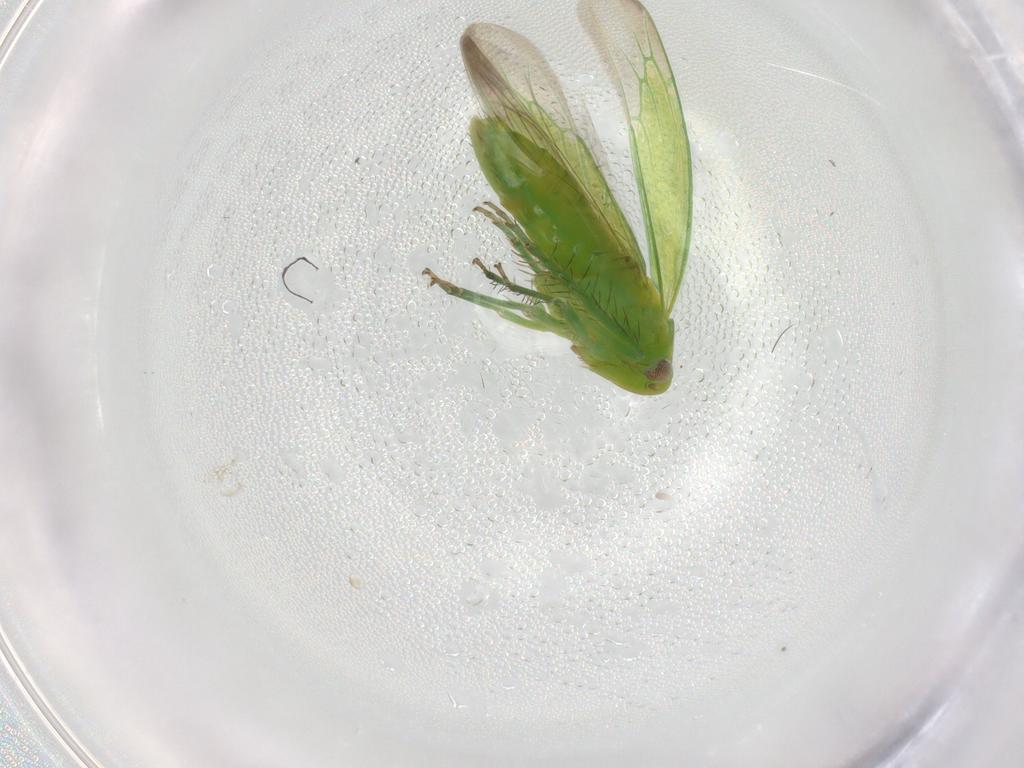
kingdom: Animalia
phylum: Arthropoda
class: Insecta
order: Hemiptera
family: Cicadellidae
